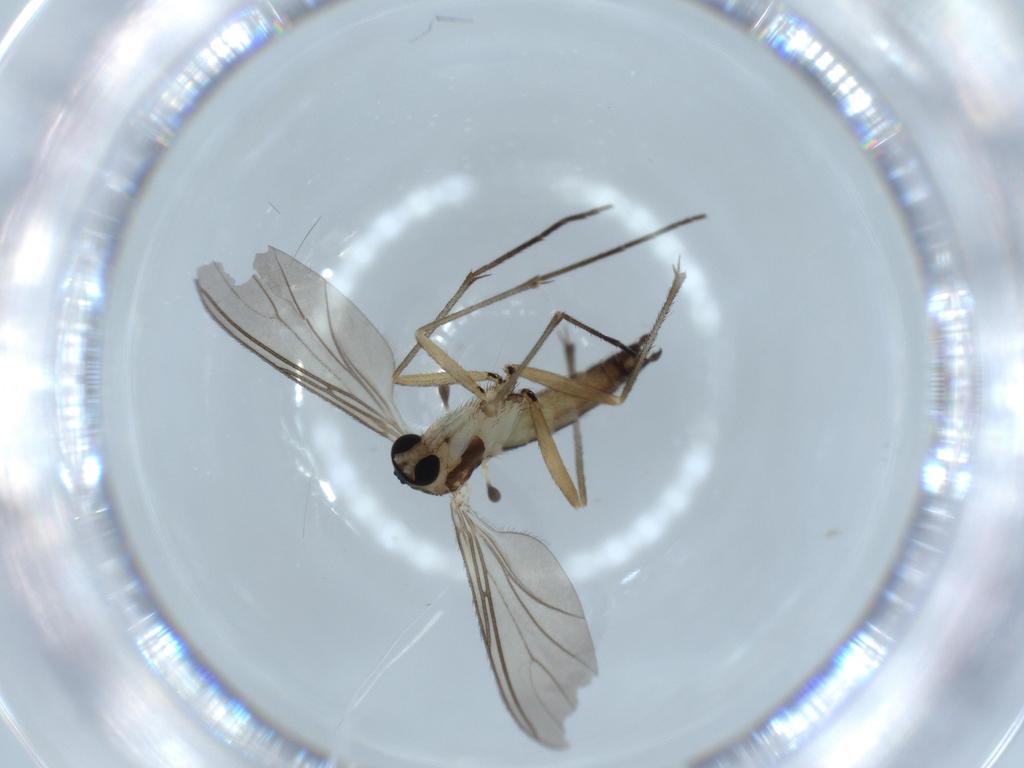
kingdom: Animalia
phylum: Arthropoda
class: Insecta
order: Diptera
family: Sciaridae
